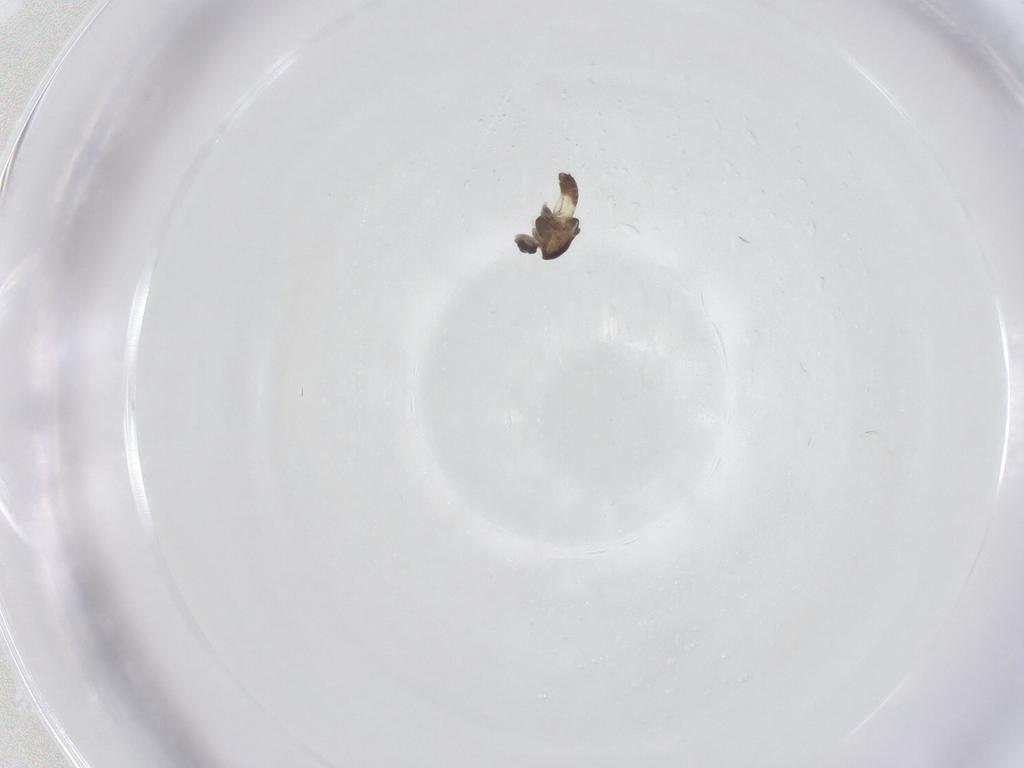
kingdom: Animalia
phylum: Arthropoda
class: Insecta
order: Diptera
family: Chironomidae
